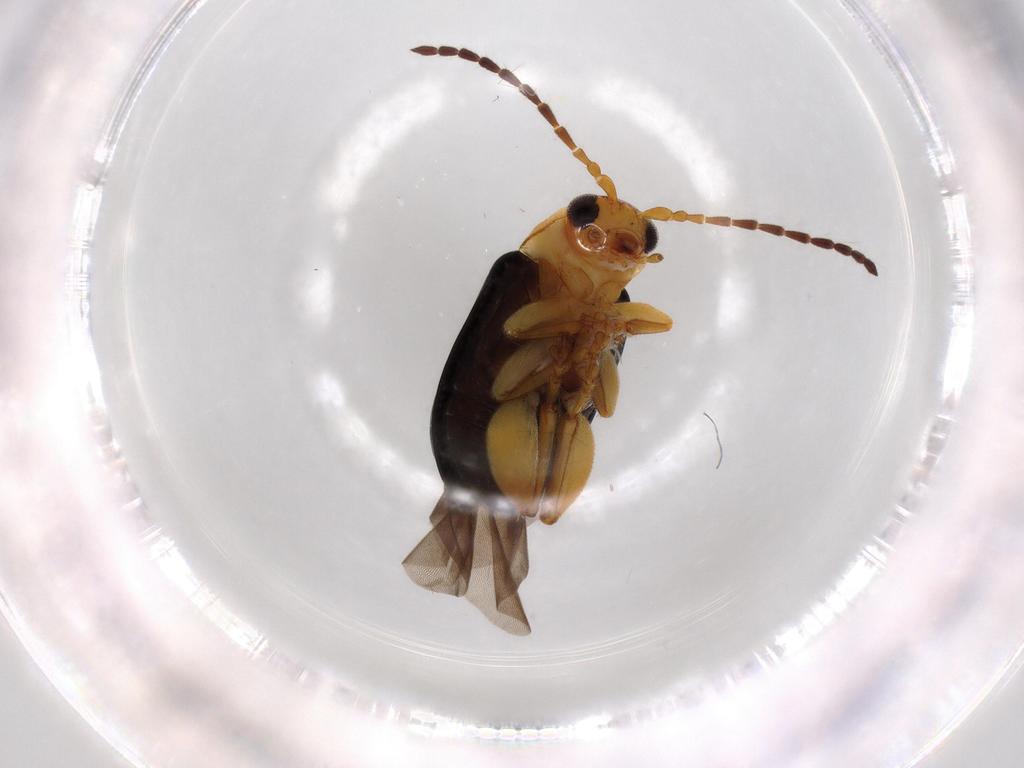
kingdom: Animalia
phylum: Arthropoda
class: Insecta
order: Coleoptera
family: Chrysomelidae
